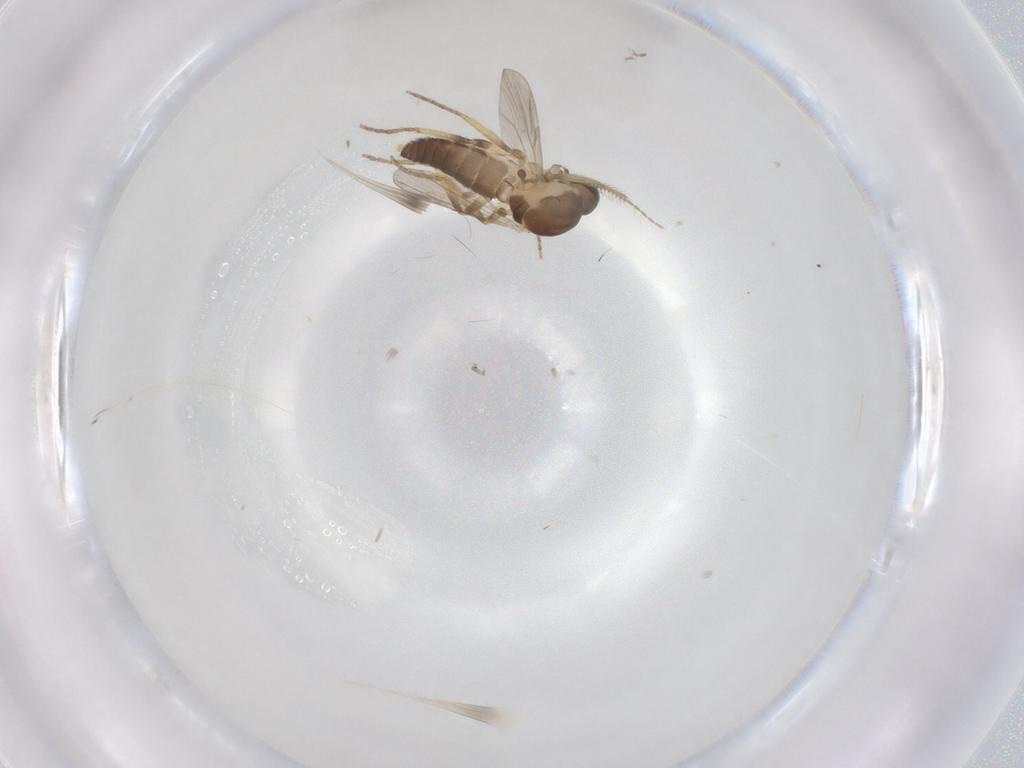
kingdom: Animalia
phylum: Arthropoda
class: Insecta
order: Diptera
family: Ceratopogonidae
